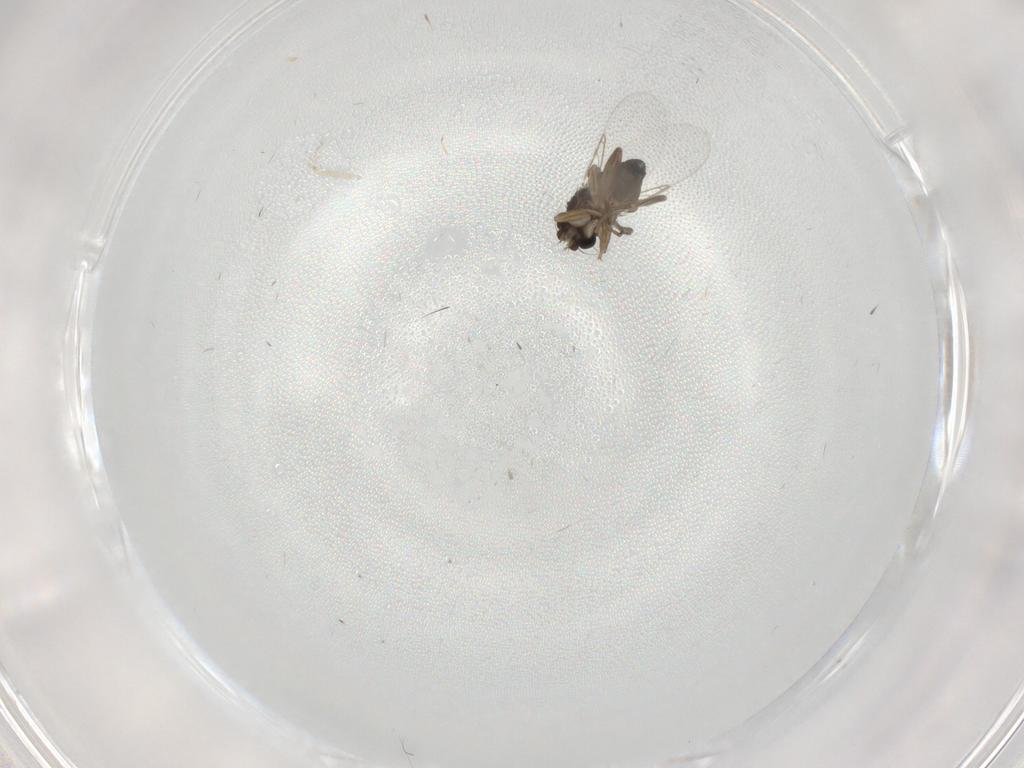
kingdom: Animalia
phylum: Arthropoda
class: Insecta
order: Diptera
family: Phoridae
